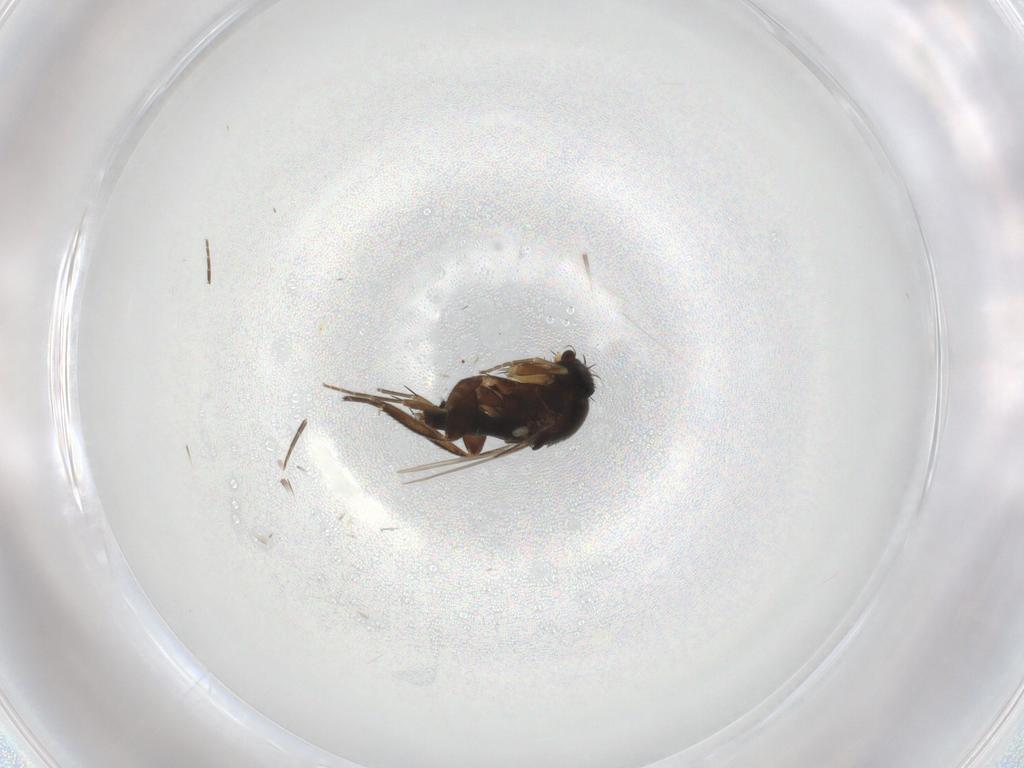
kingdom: Animalia
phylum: Arthropoda
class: Insecta
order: Diptera
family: Phoridae
